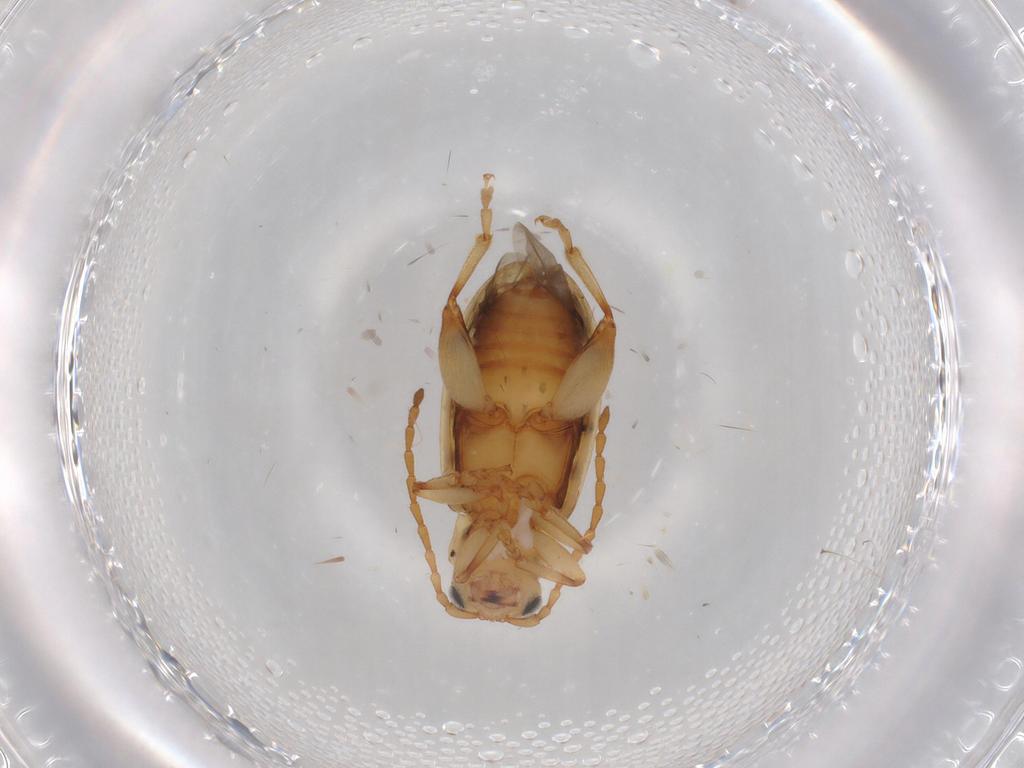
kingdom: Animalia
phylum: Arthropoda
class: Insecta
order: Coleoptera
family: Chrysomelidae
